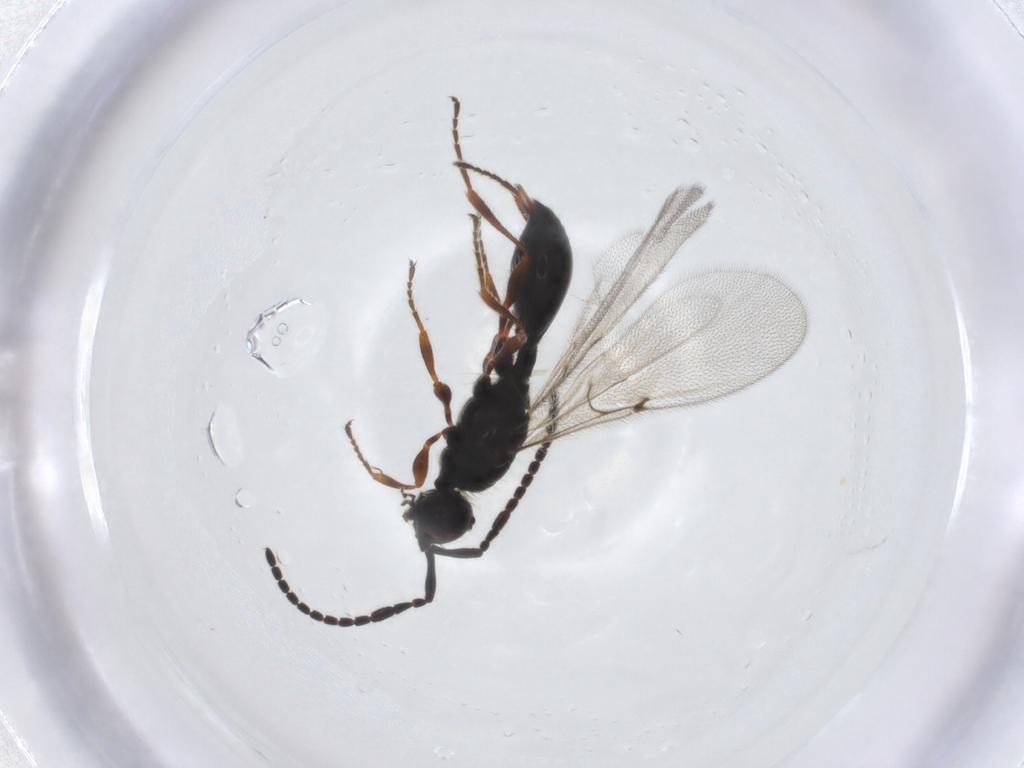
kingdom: Animalia
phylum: Arthropoda
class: Insecta
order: Hymenoptera
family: Diapriidae
